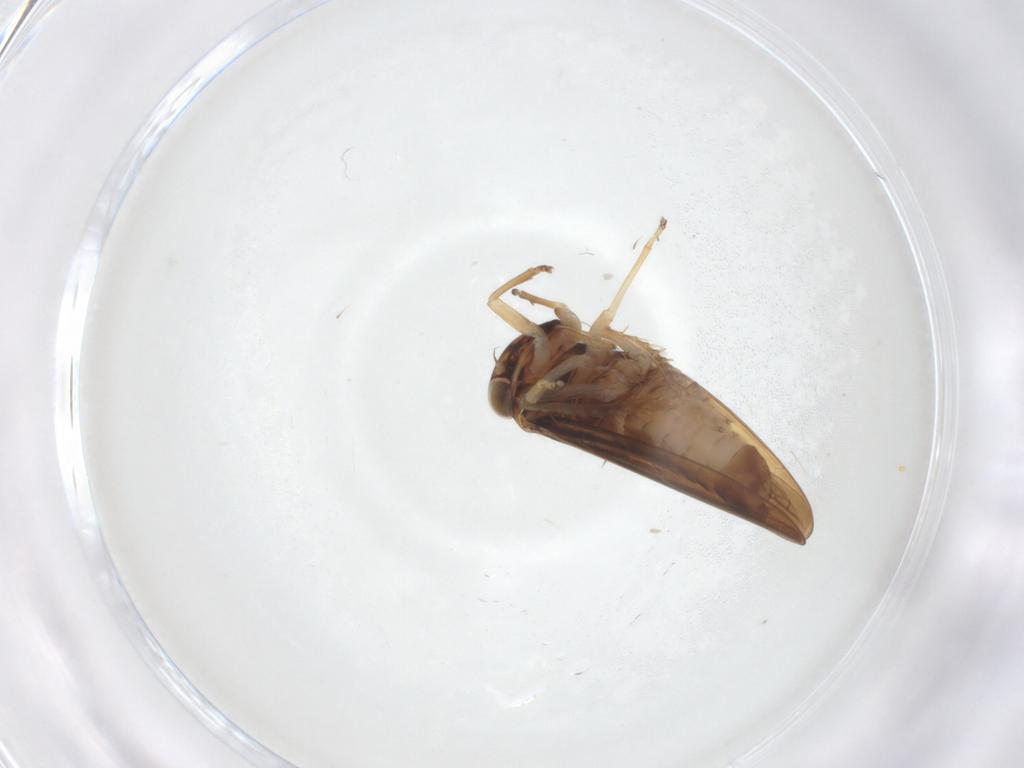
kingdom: Animalia
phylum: Arthropoda
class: Insecta
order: Hemiptera
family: Cicadellidae
